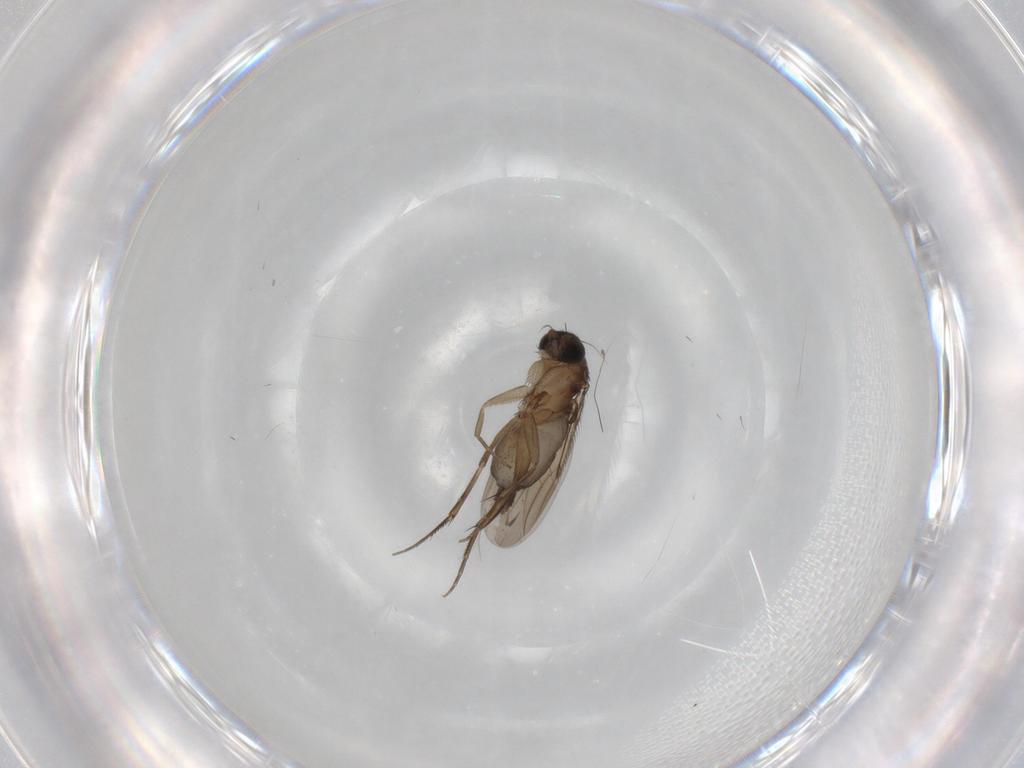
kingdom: Animalia
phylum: Arthropoda
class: Insecta
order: Diptera
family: Phoridae
